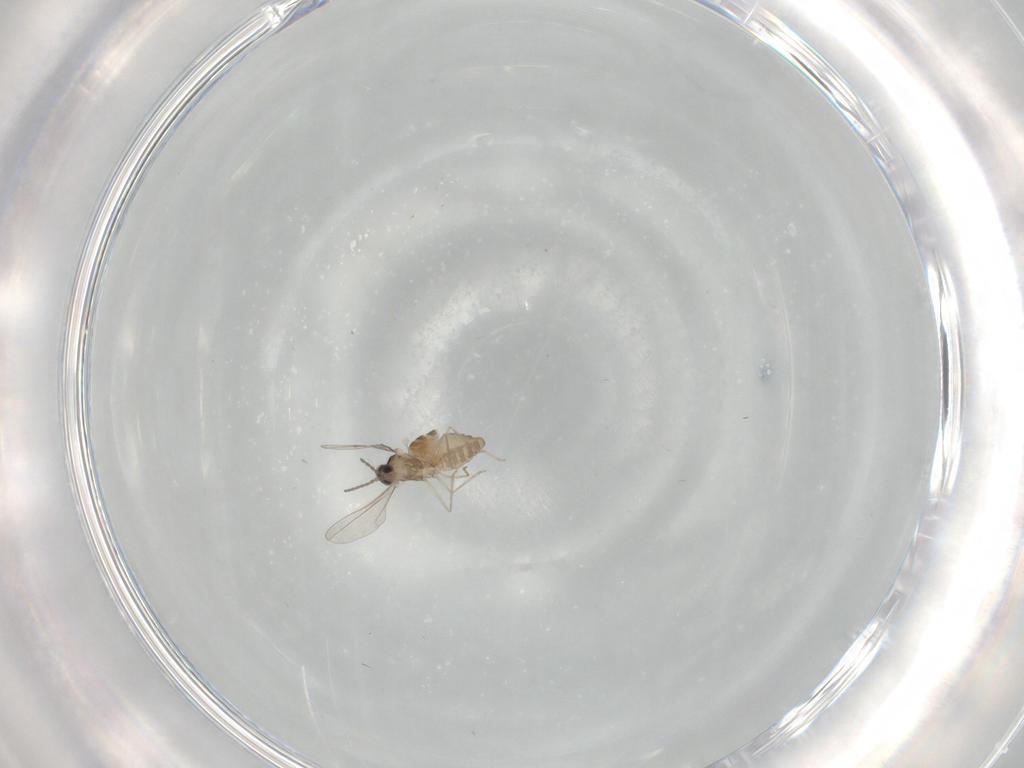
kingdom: Animalia
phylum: Arthropoda
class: Insecta
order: Diptera
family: Cecidomyiidae
